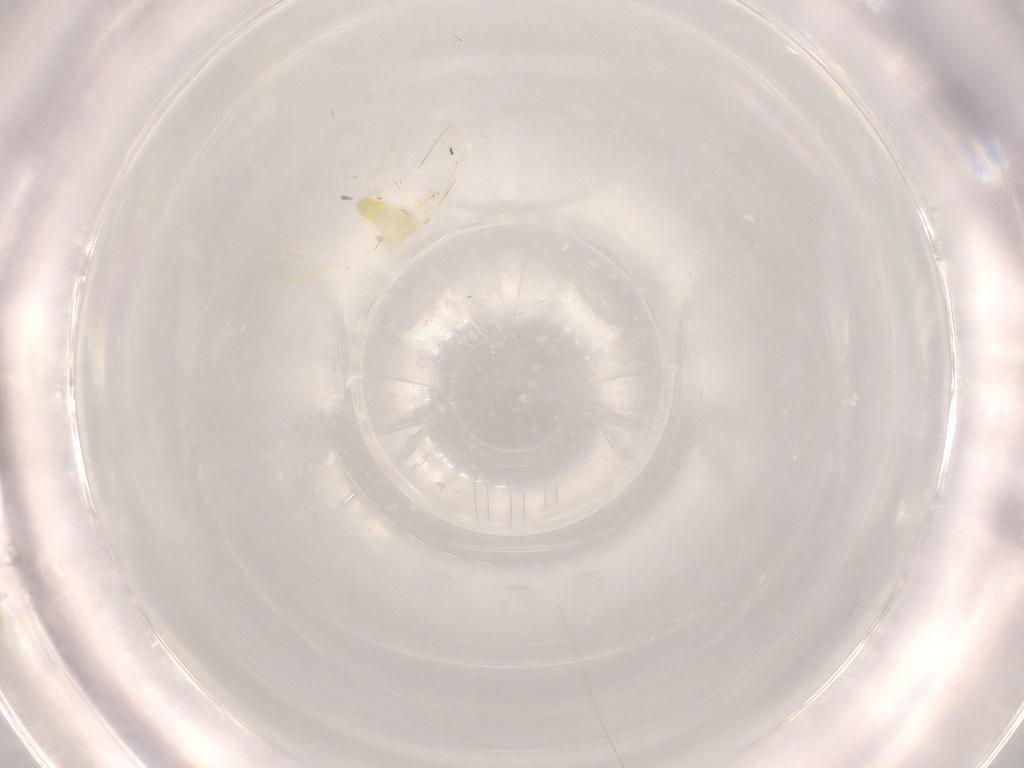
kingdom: Animalia
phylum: Arthropoda
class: Insecta
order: Hemiptera
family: Aleyrodidae
